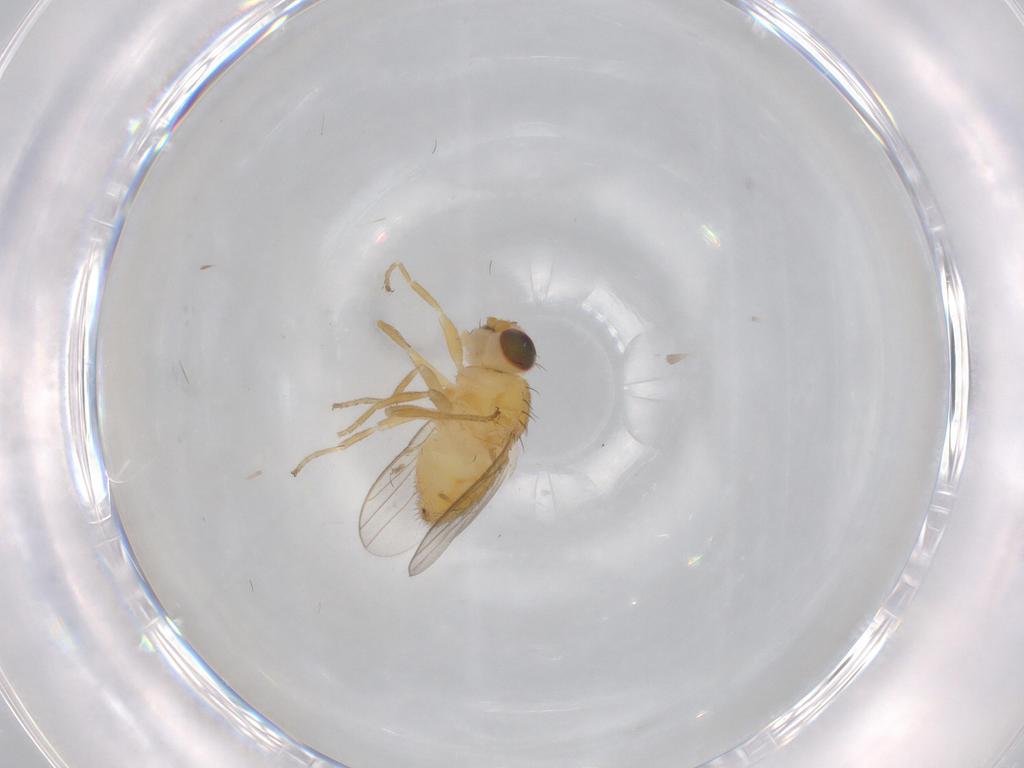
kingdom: Animalia
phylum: Arthropoda
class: Insecta
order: Diptera
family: Chloropidae
